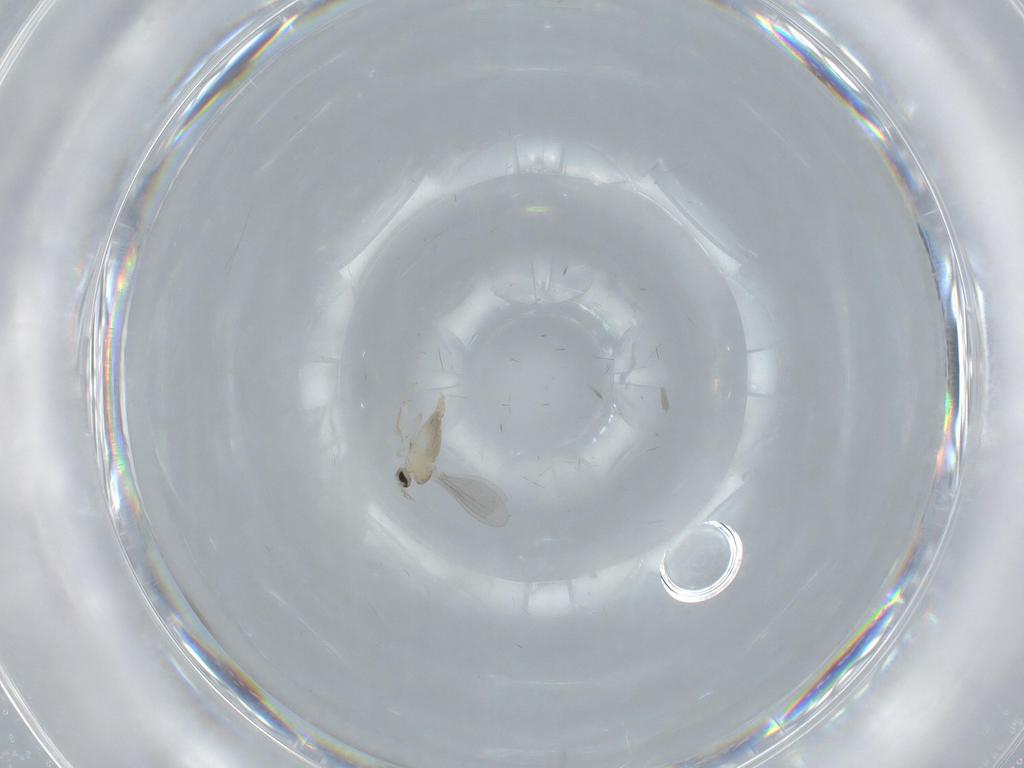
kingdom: Animalia
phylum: Arthropoda
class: Insecta
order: Diptera
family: Cecidomyiidae
